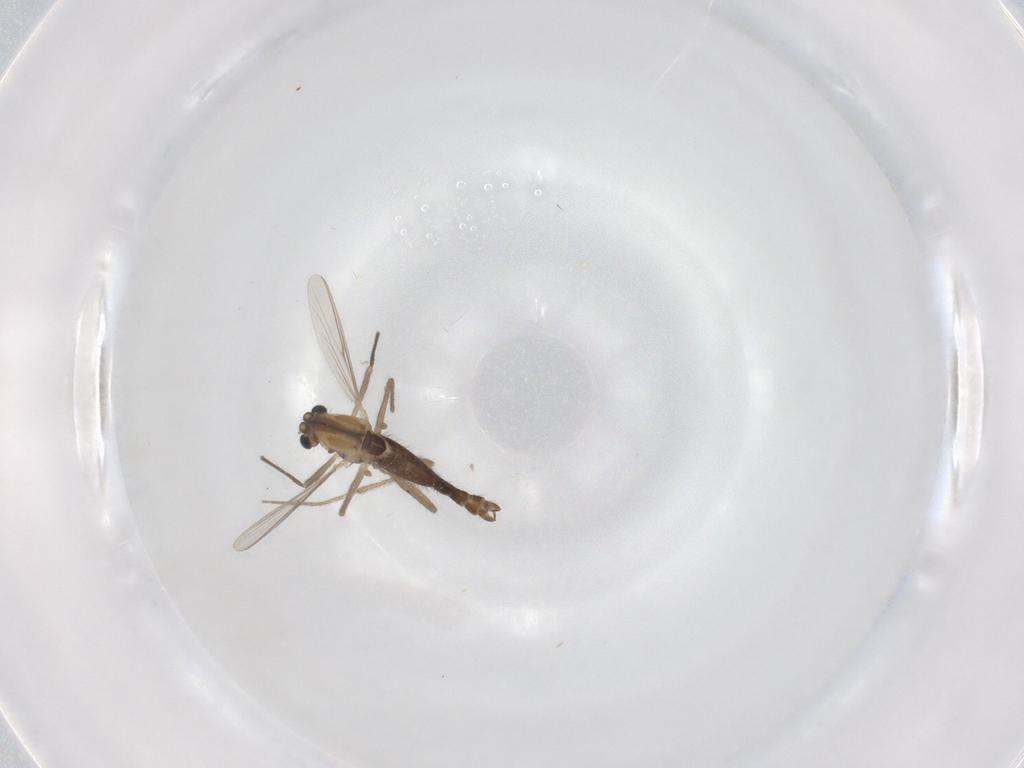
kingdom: Animalia
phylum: Arthropoda
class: Insecta
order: Diptera
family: Chironomidae
